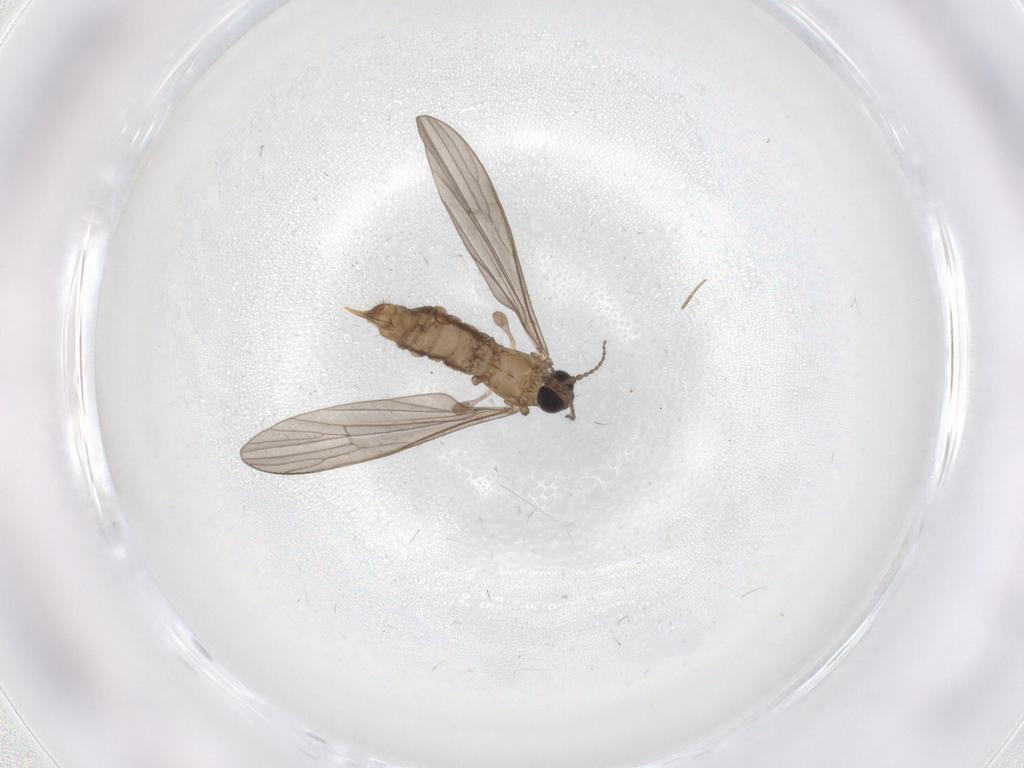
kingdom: Animalia
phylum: Arthropoda
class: Insecta
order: Diptera
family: Limoniidae
